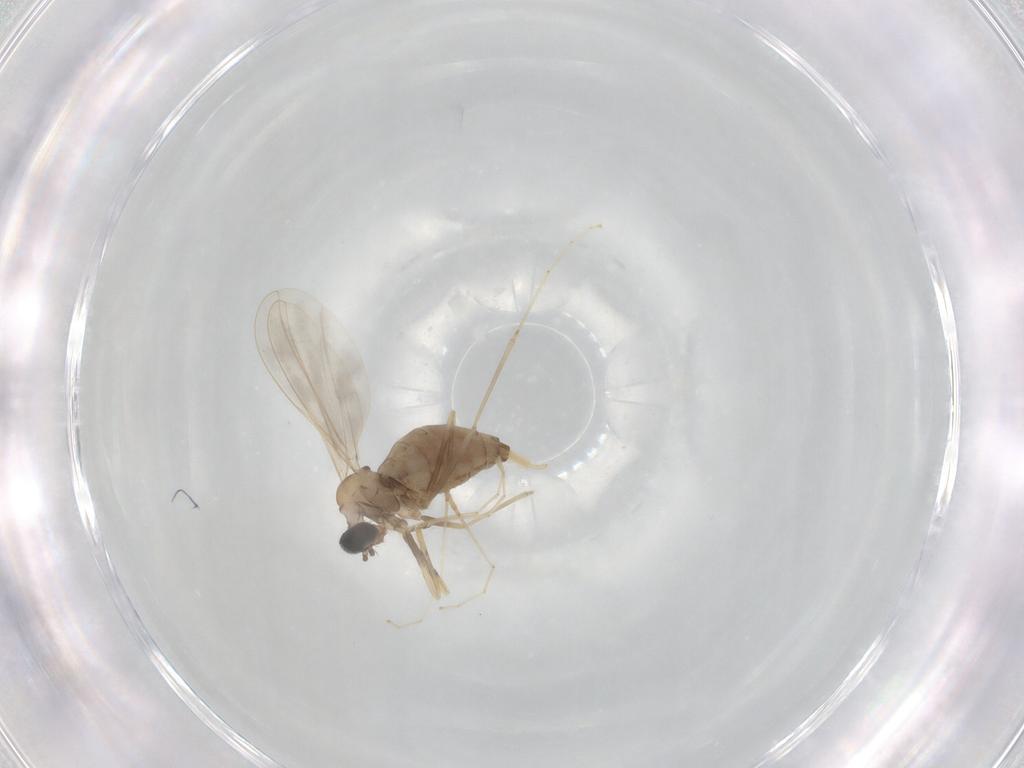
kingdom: Animalia
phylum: Arthropoda
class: Insecta
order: Diptera
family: Cecidomyiidae
